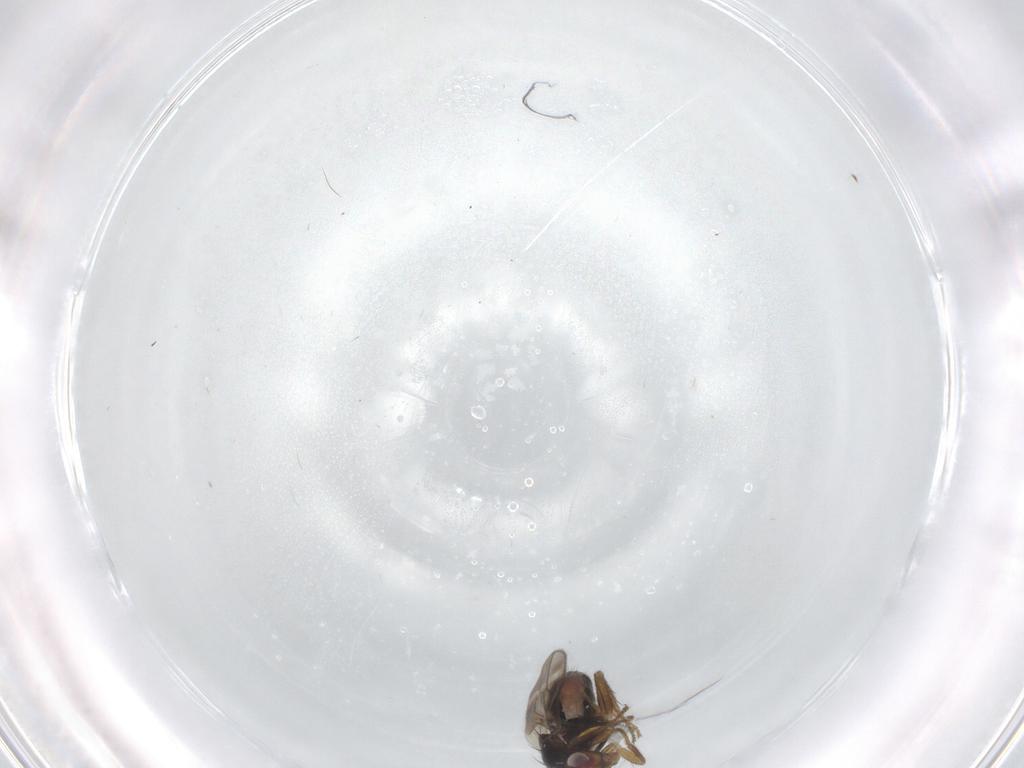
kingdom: Animalia
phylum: Arthropoda
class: Insecta
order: Diptera
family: Sphaeroceridae
